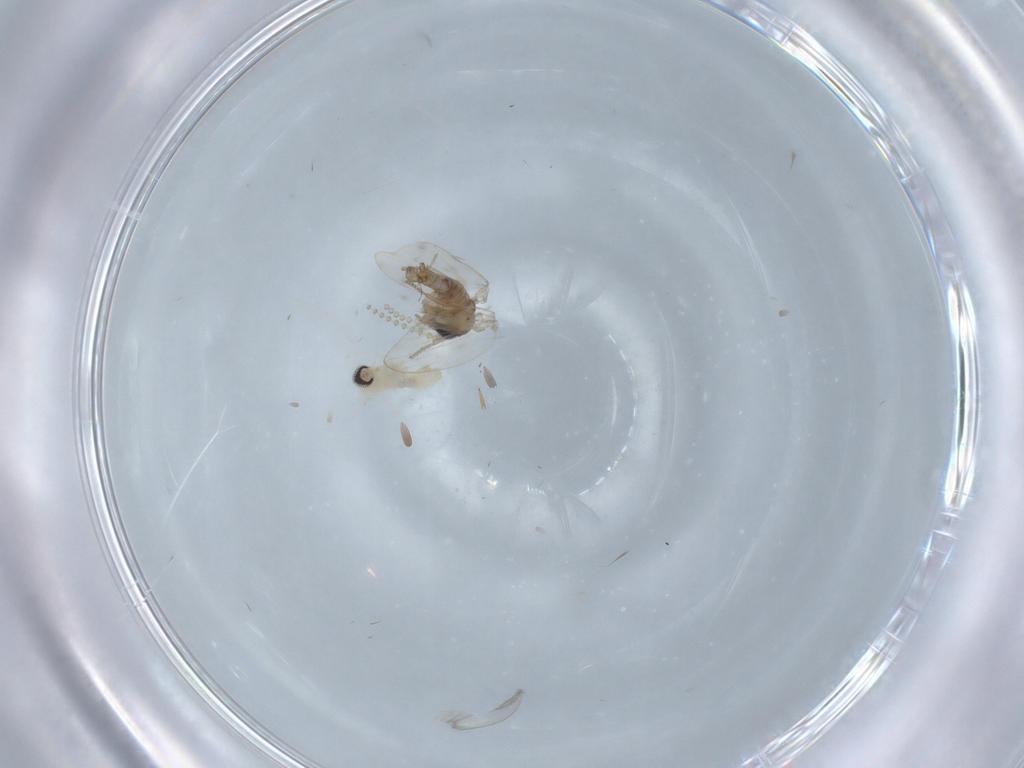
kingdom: Animalia
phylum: Arthropoda
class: Insecta
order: Diptera
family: Psychodidae
